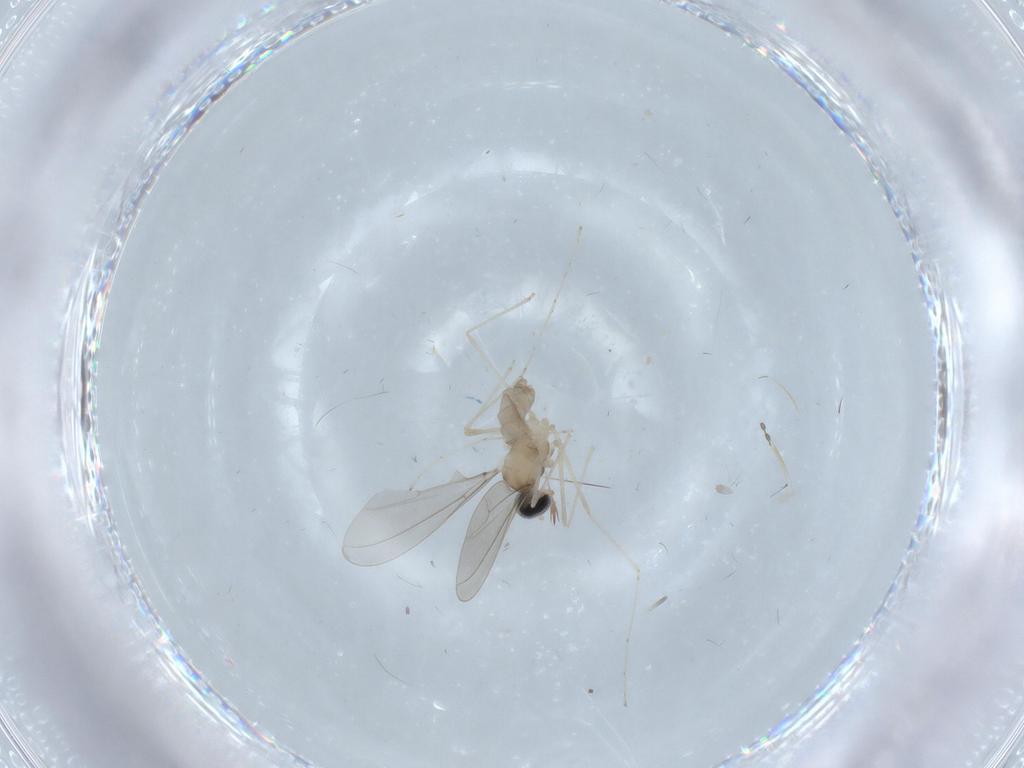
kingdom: Animalia
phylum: Arthropoda
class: Insecta
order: Diptera
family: Cecidomyiidae
